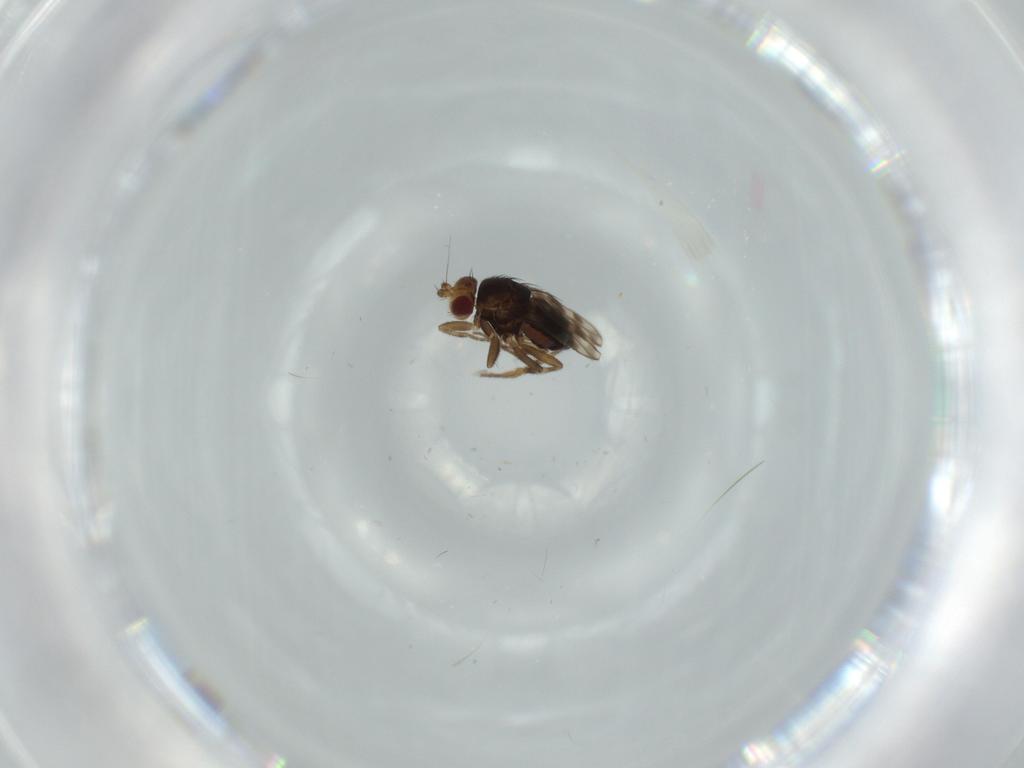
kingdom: Animalia
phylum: Arthropoda
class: Insecta
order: Diptera
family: Sphaeroceridae
